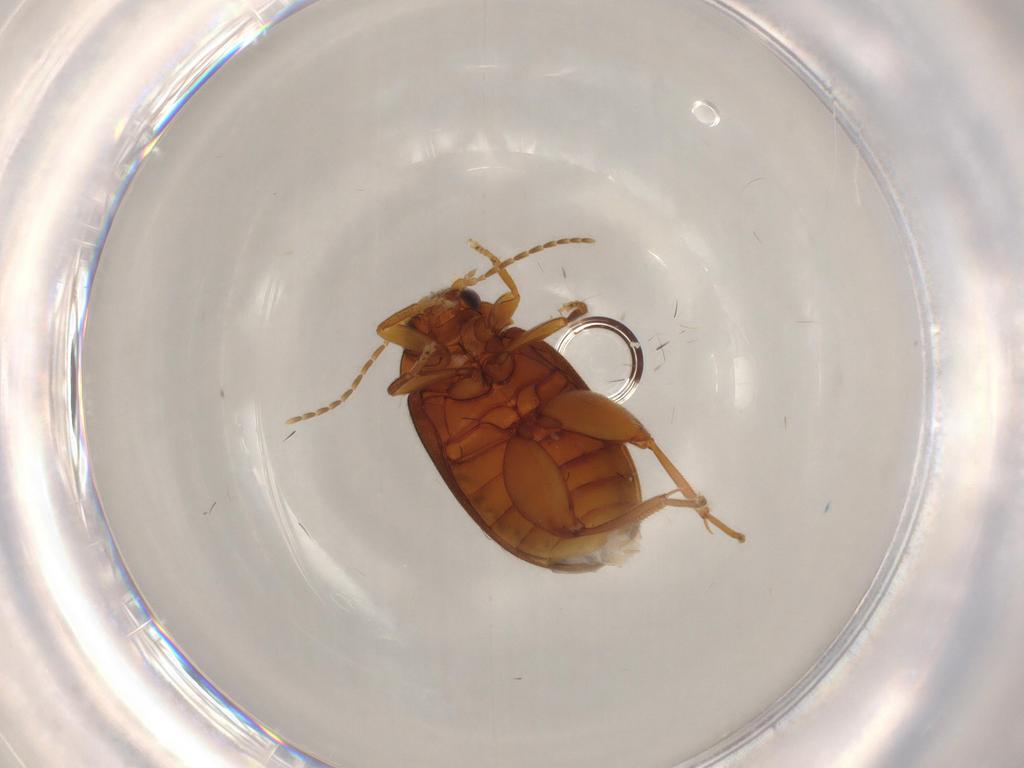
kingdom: Animalia
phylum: Arthropoda
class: Insecta
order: Coleoptera
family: Scirtidae
